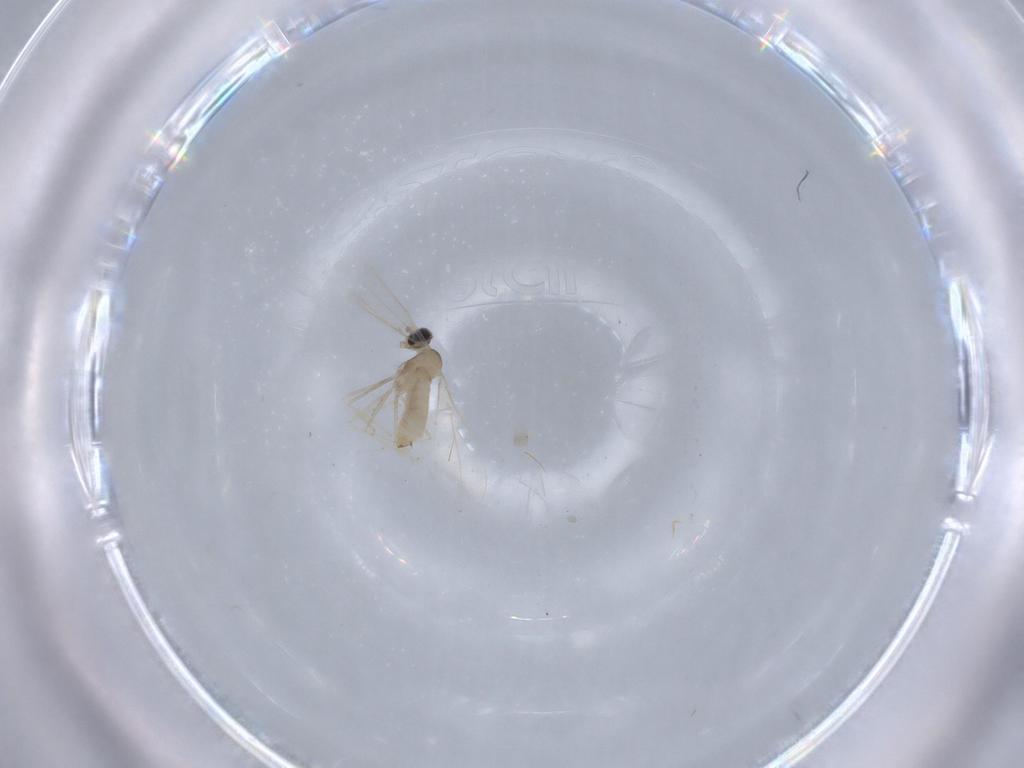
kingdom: Animalia
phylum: Arthropoda
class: Insecta
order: Diptera
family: Cecidomyiidae
